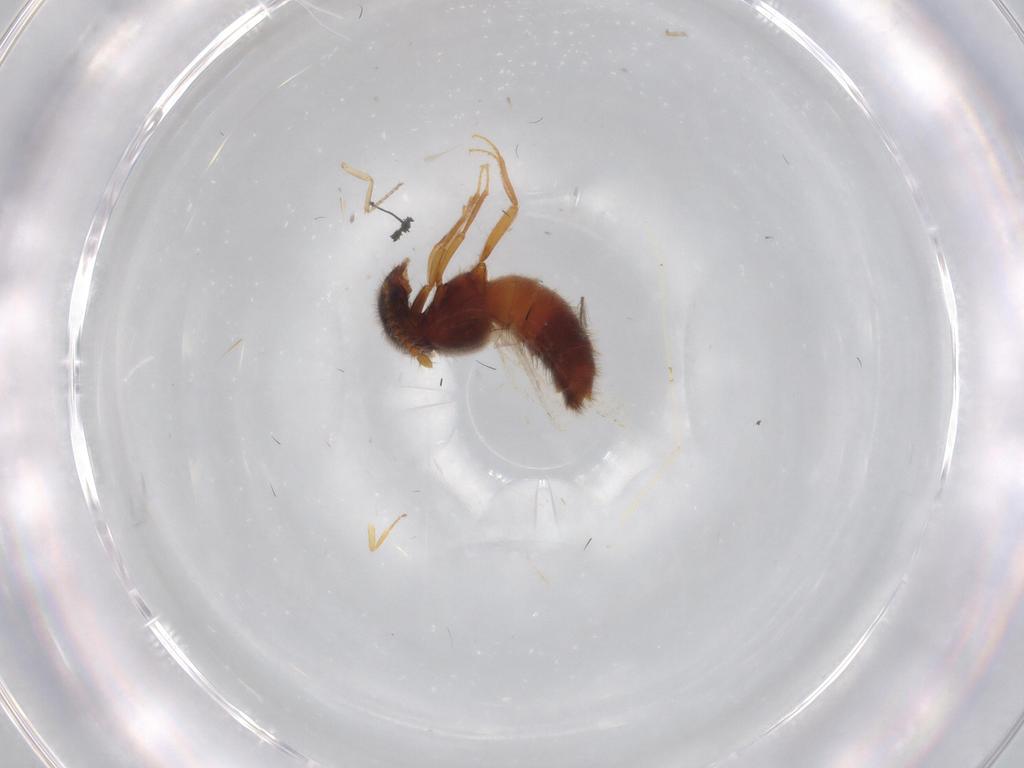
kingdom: Animalia
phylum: Arthropoda
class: Insecta
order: Coleoptera
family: Staphylinidae
